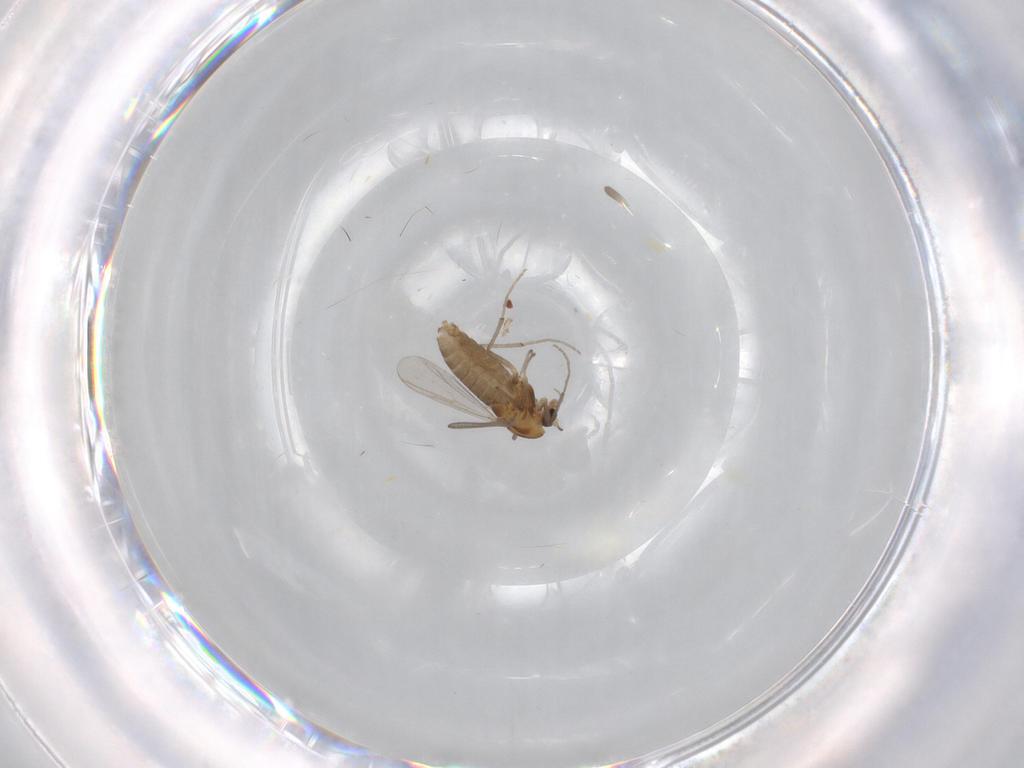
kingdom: Animalia
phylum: Arthropoda
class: Insecta
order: Diptera
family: Chironomidae
